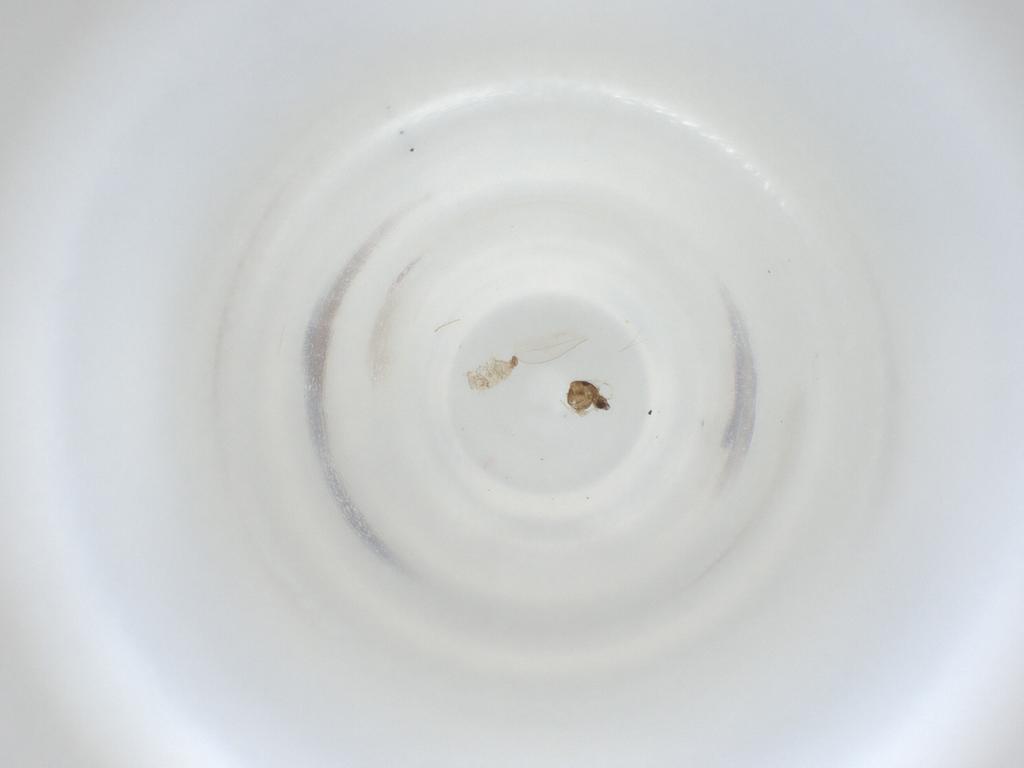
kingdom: Animalia
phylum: Arthropoda
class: Insecta
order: Diptera
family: Cecidomyiidae
